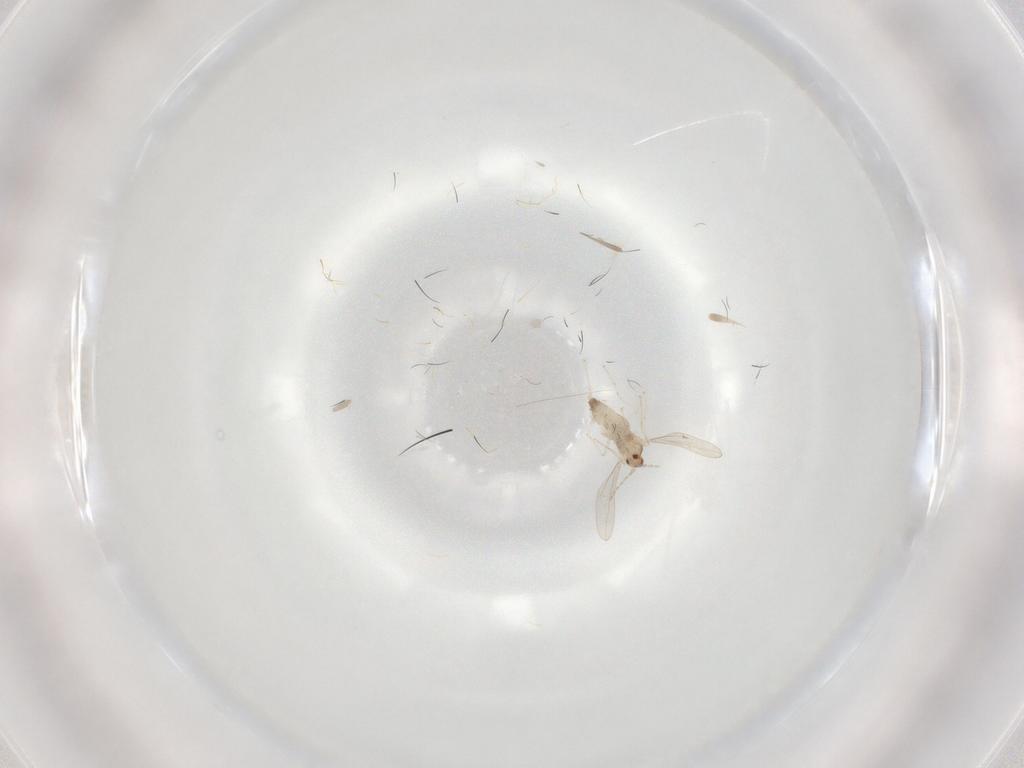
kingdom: Animalia
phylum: Arthropoda
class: Insecta
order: Diptera
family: Cecidomyiidae
